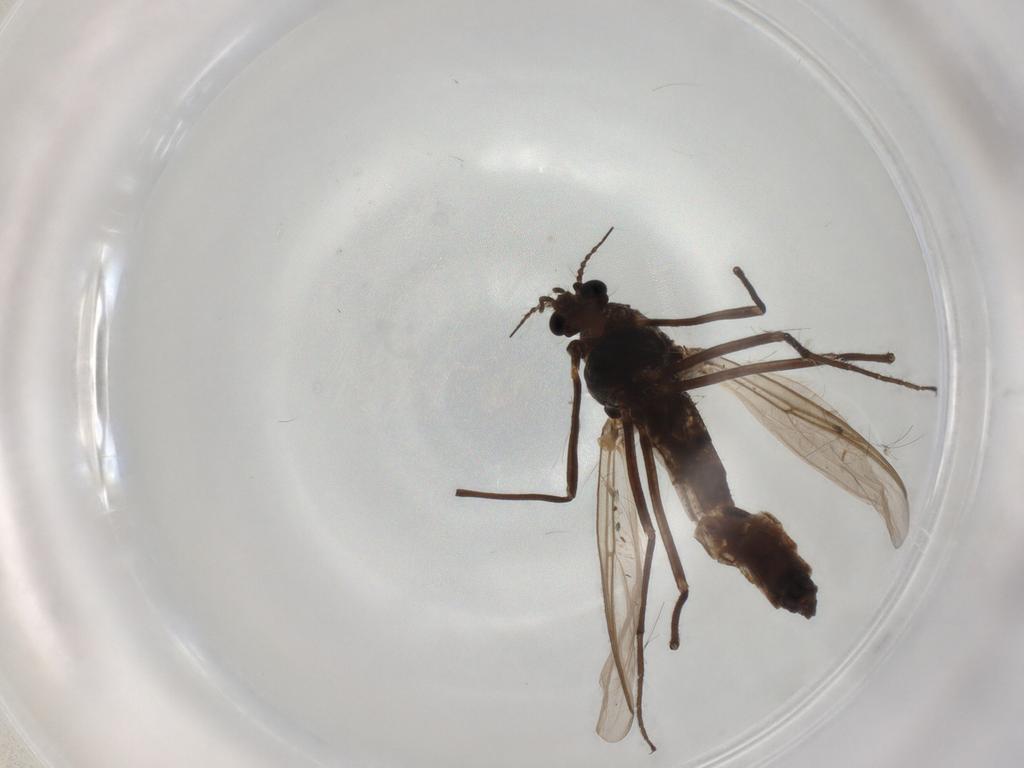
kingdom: Animalia
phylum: Arthropoda
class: Insecta
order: Diptera
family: Chironomidae
